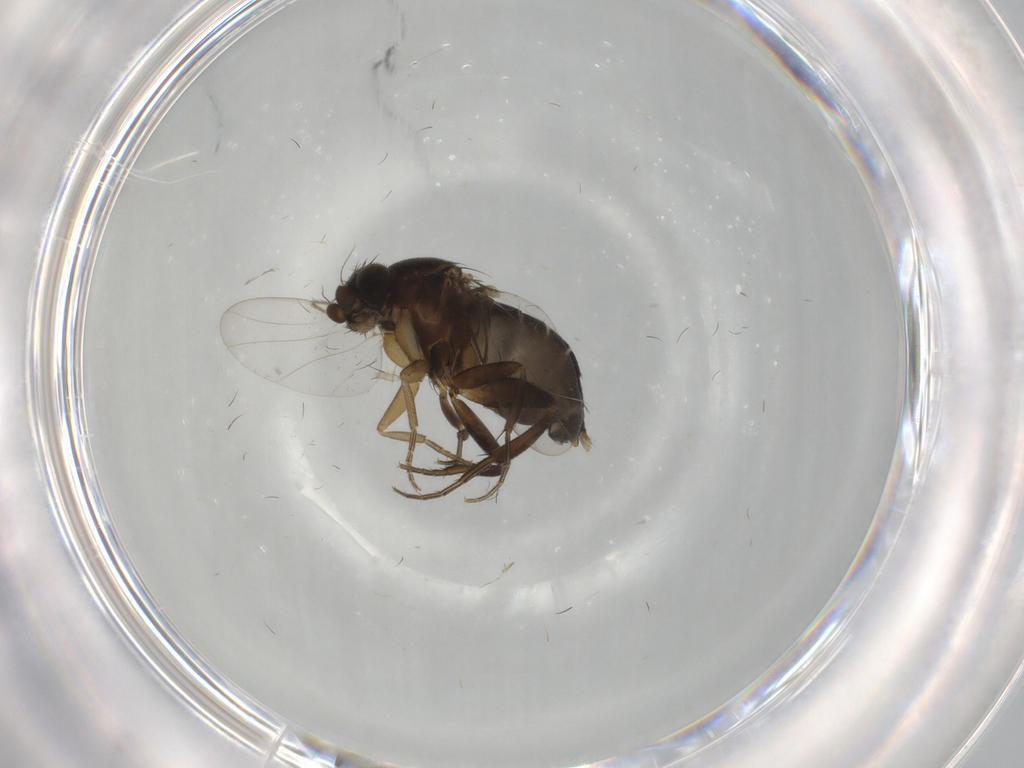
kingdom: Animalia
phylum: Arthropoda
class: Insecta
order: Diptera
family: Phoridae
